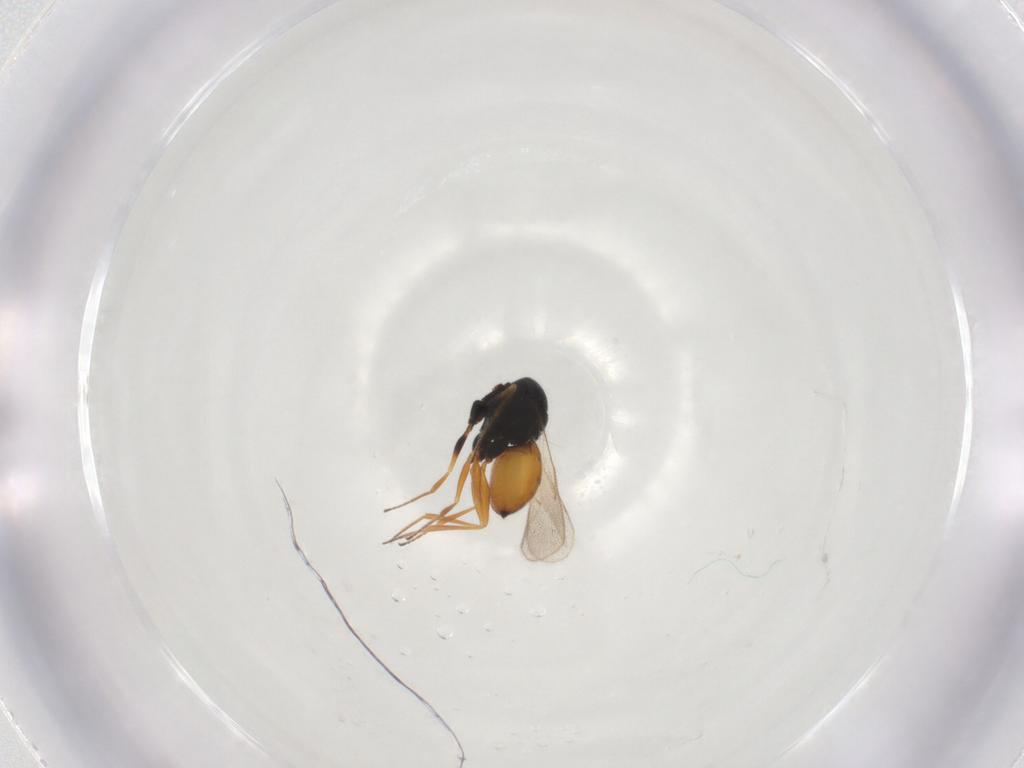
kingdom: Animalia
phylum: Arthropoda
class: Insecta
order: Hymenoptera
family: Scelionidae
